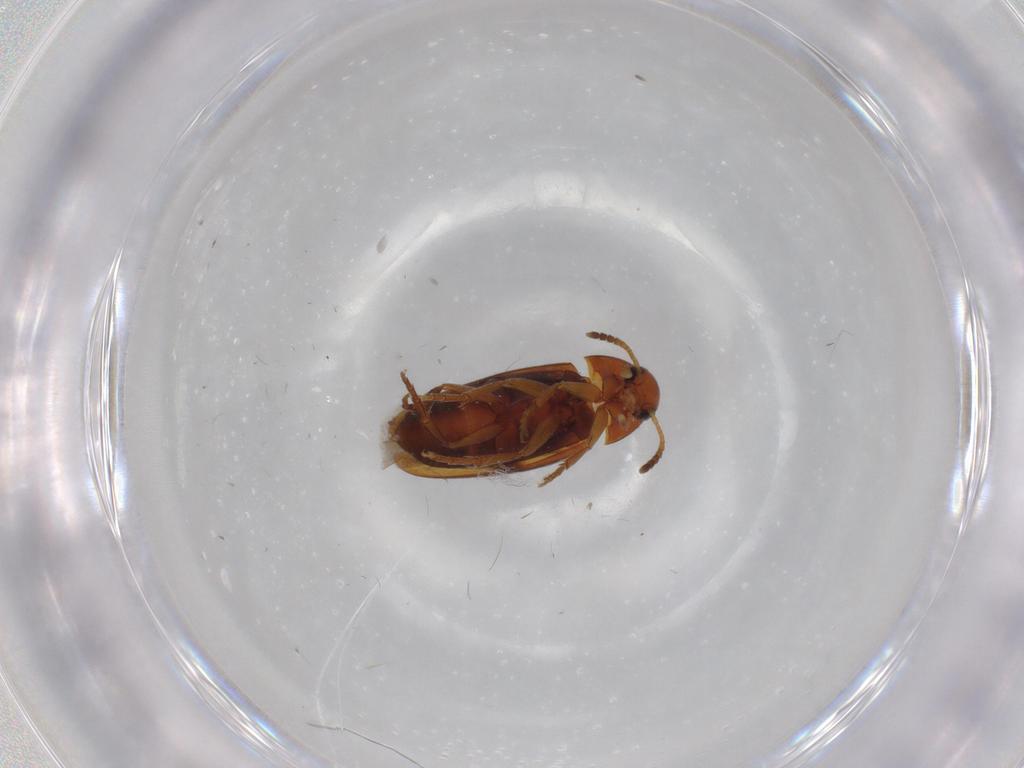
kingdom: Animalia
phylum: Arthropoda
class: Insecta
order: Coleoptera
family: Scraptiidae
